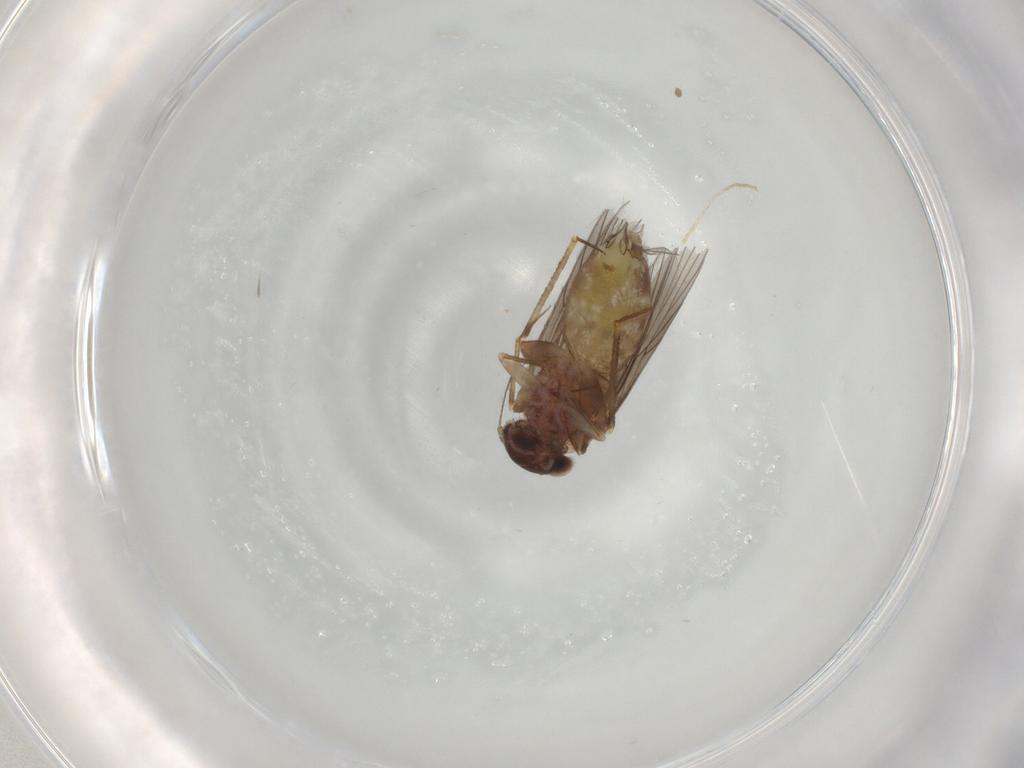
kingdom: Animalia
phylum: Arthropoda
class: Insecta
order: Psocodea
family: Lepidopsocidae
